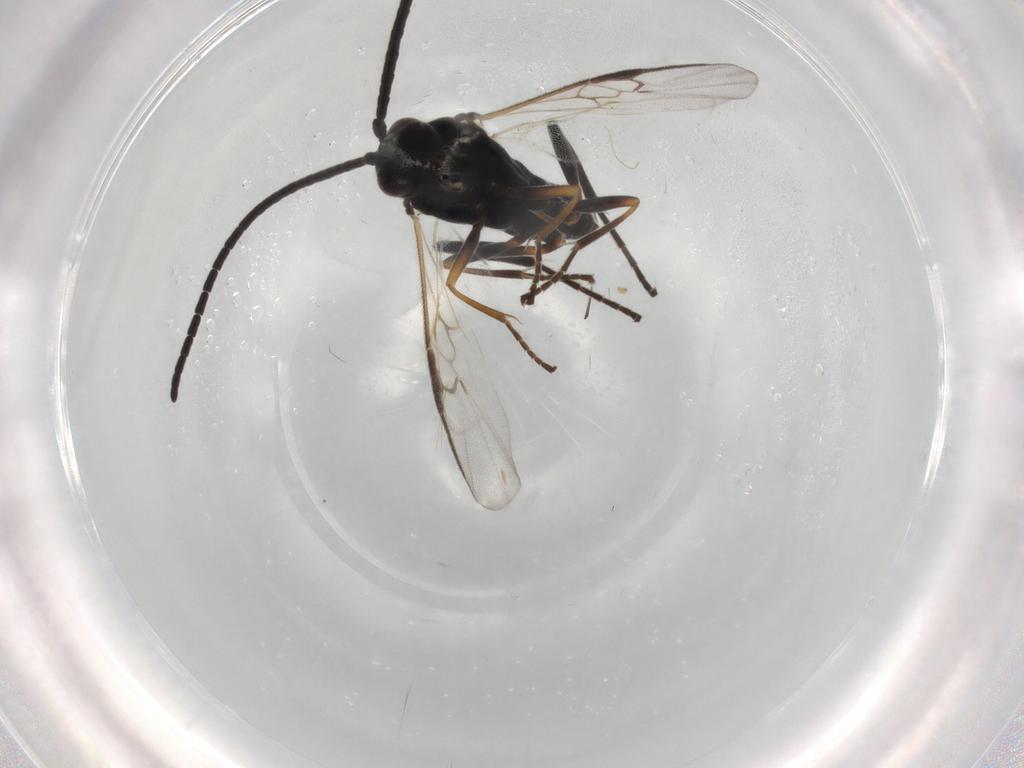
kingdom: Animalia
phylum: Arthropoda
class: Insecta
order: Hymenoptera
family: Braconidae
